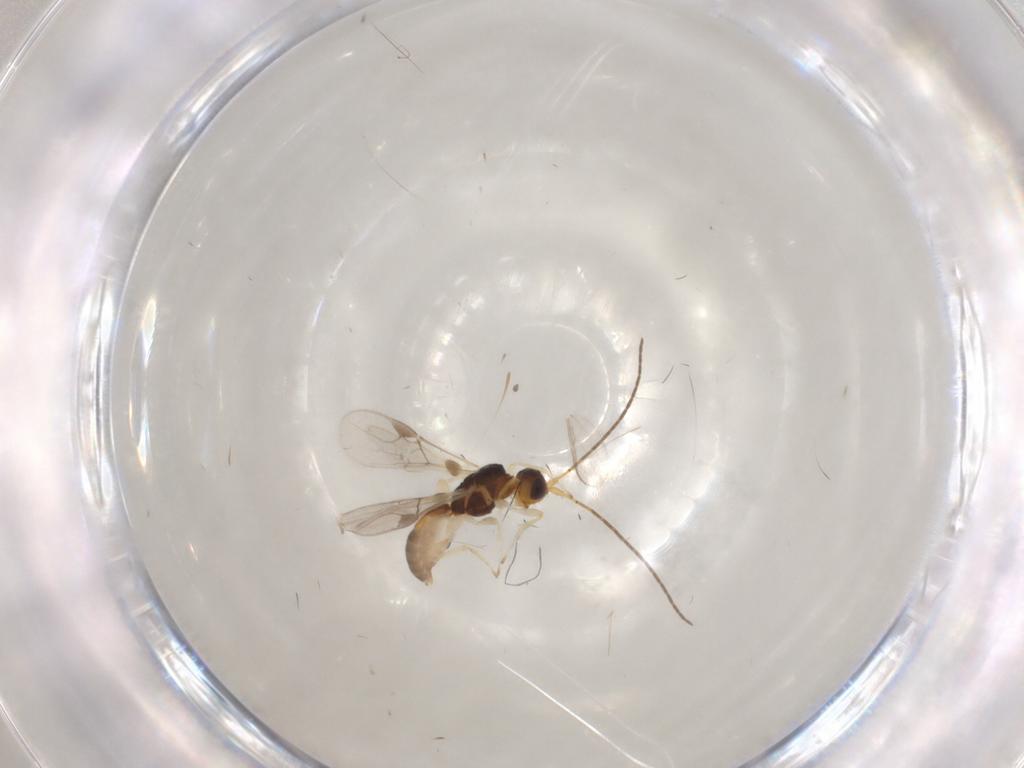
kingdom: Animalia
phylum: Arthropoda
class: Insecta
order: Hymenoptera
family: Braconidae
